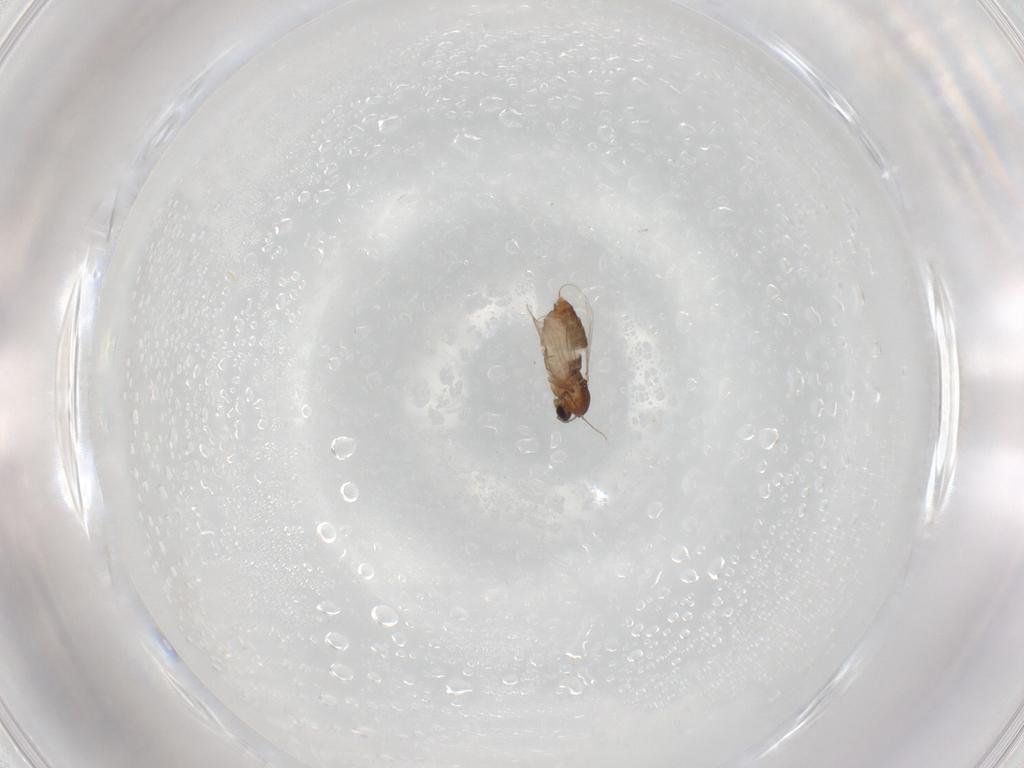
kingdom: Animalia
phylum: Arthropoda
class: Insecta
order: Diptera
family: Chironomidae
